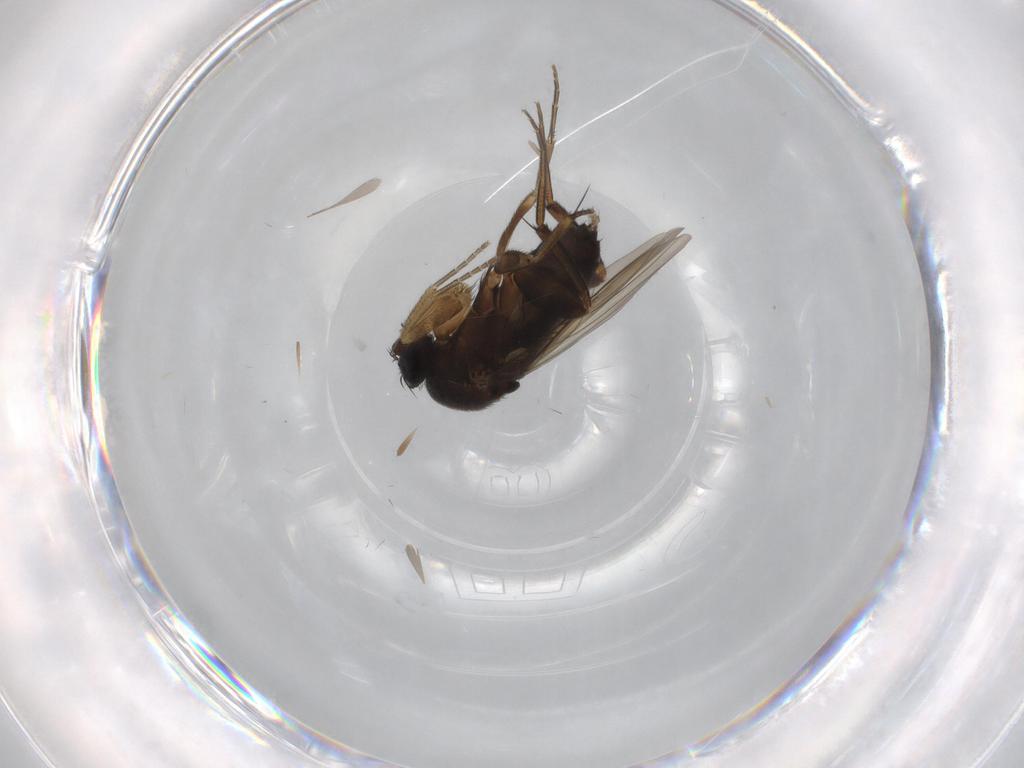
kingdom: Animalia
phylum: Arthropoda
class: Insecta
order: Diptera
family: Phoridae
